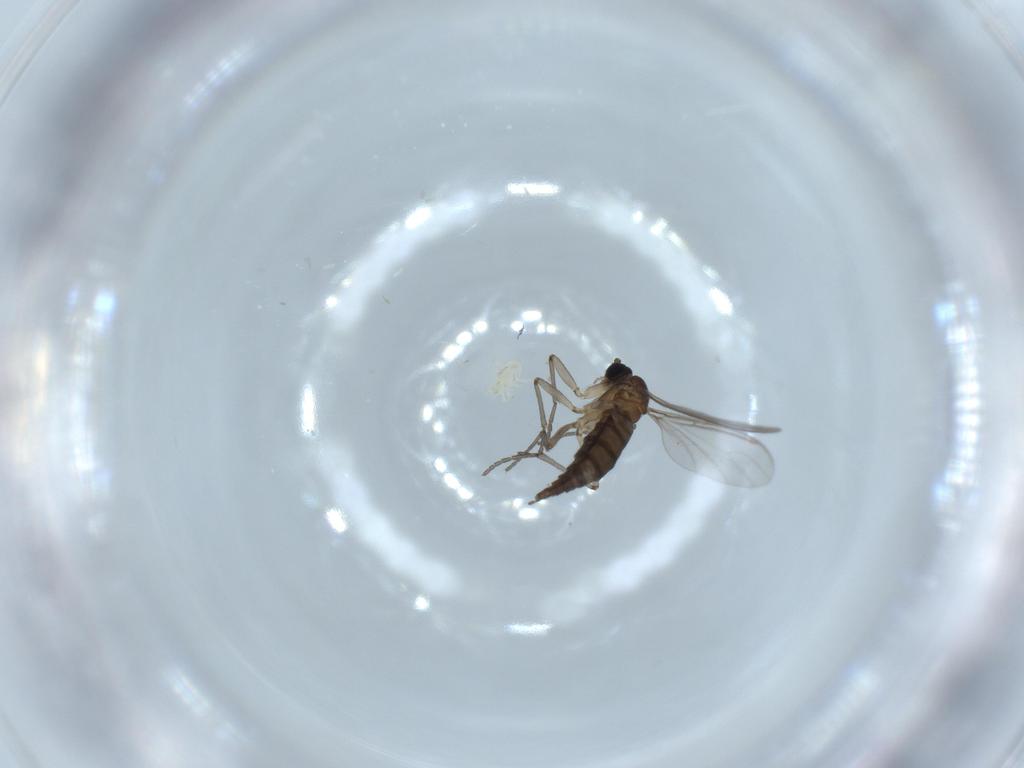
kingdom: Animalia
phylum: Arthropoda
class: Insecta
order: Diptera
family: Sciaridae
